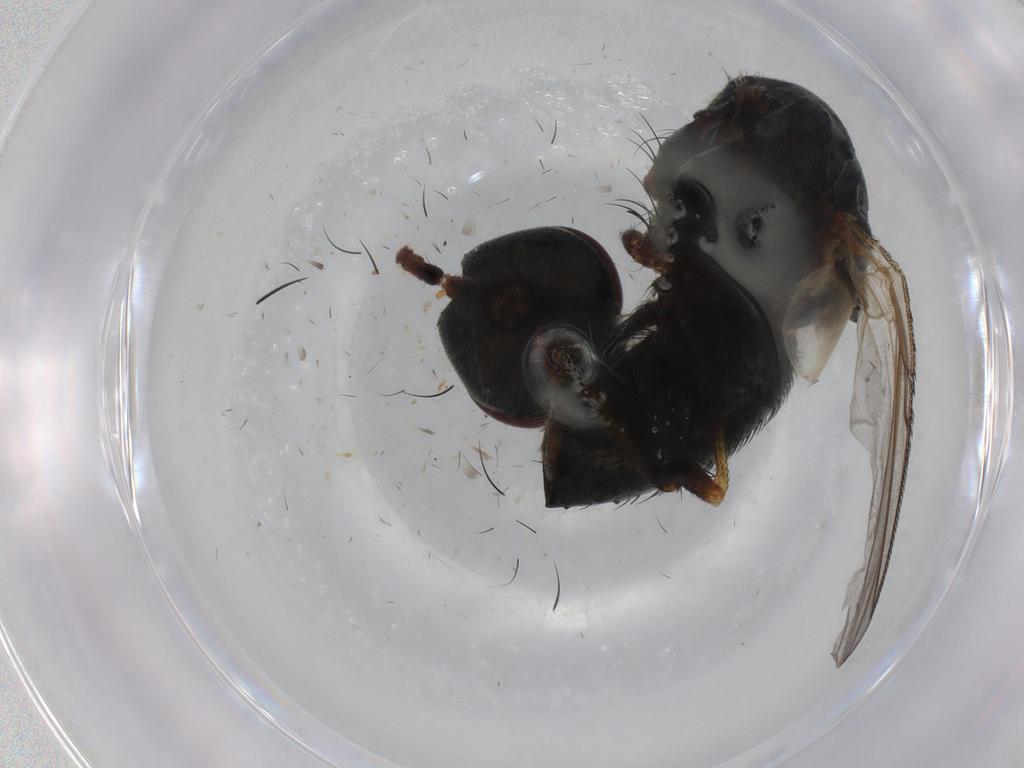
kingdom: Animalia
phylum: Arthropoda
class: Insecta
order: Diptera
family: Tachinidae
